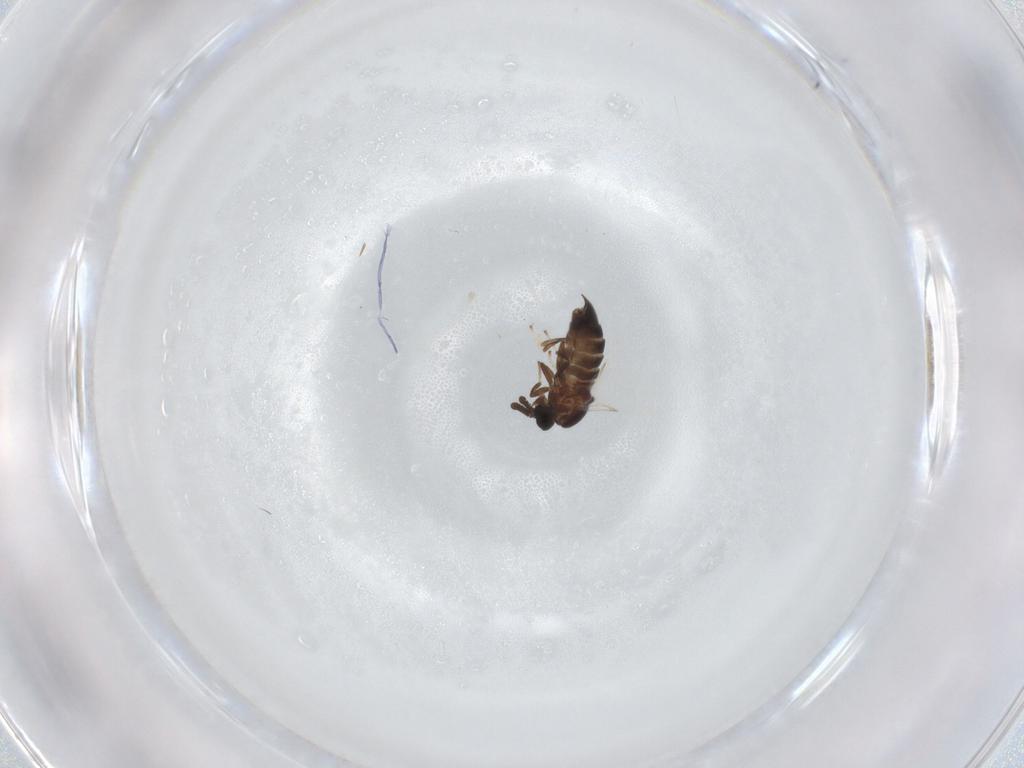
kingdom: Animalia
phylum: Arthropoda
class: Insecta
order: Diptera
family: Scatopsidae
